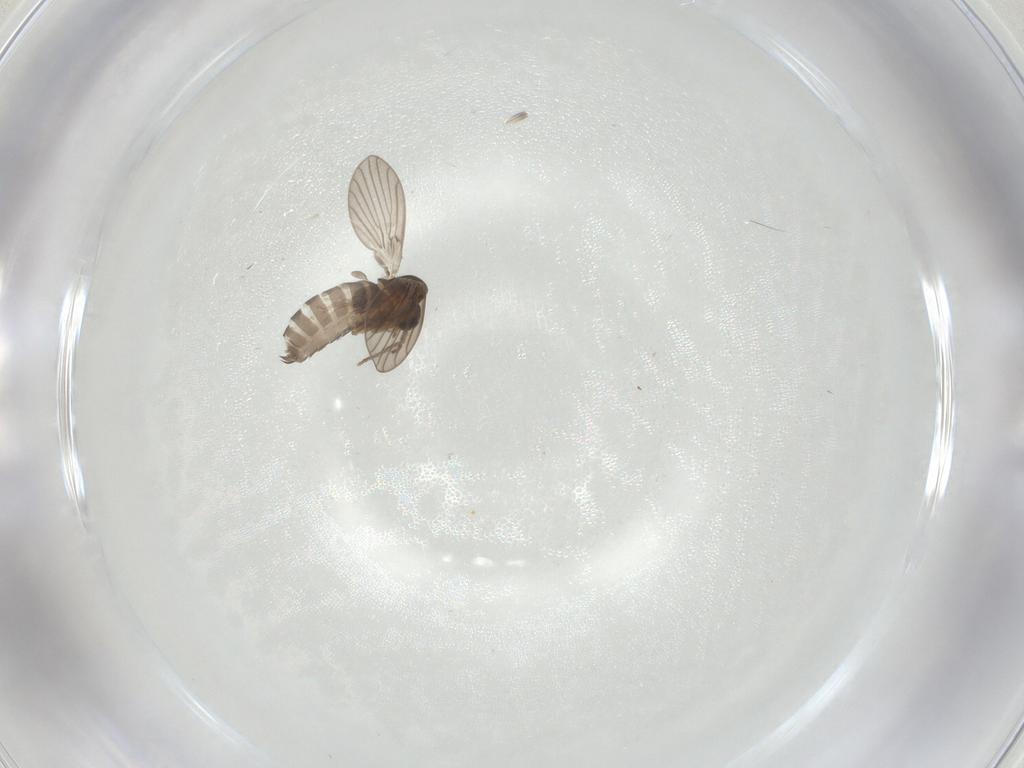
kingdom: Animalia
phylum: Arthropoda
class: Insecta
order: Diptera
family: Psychodidae
